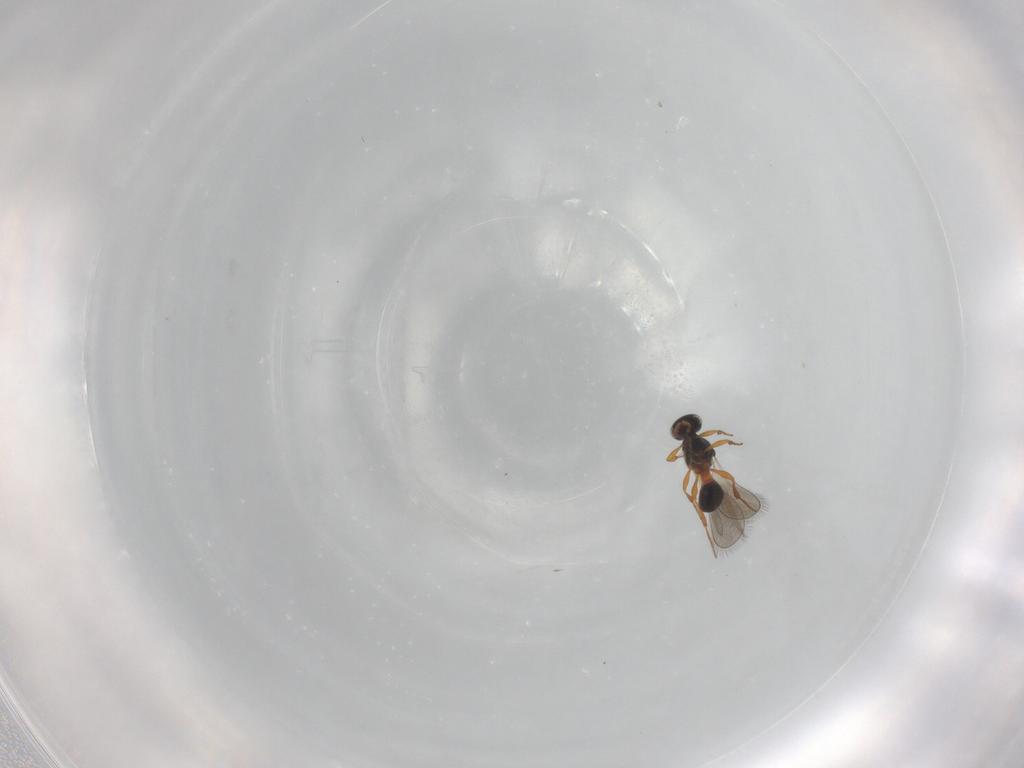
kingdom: Animalia
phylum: Arthropoda
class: Insecta
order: Hymenoptera
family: Platygastridae
